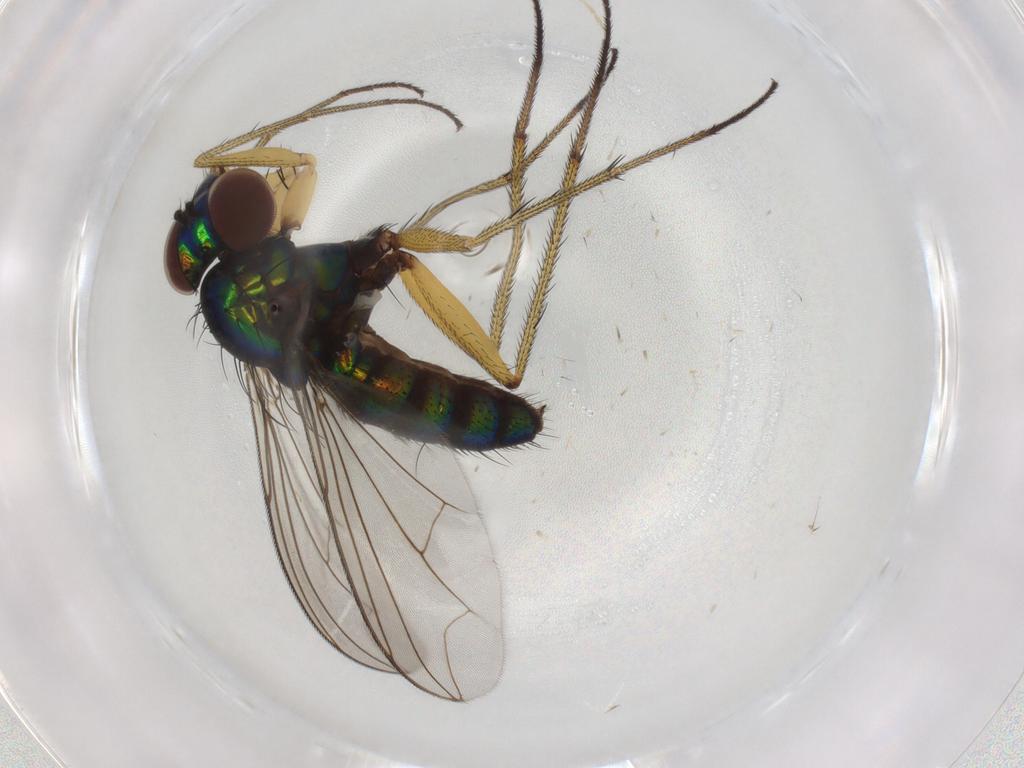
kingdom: Animalia
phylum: Arthropoda
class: Insecta
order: Diptera
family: Dolichopodidae
